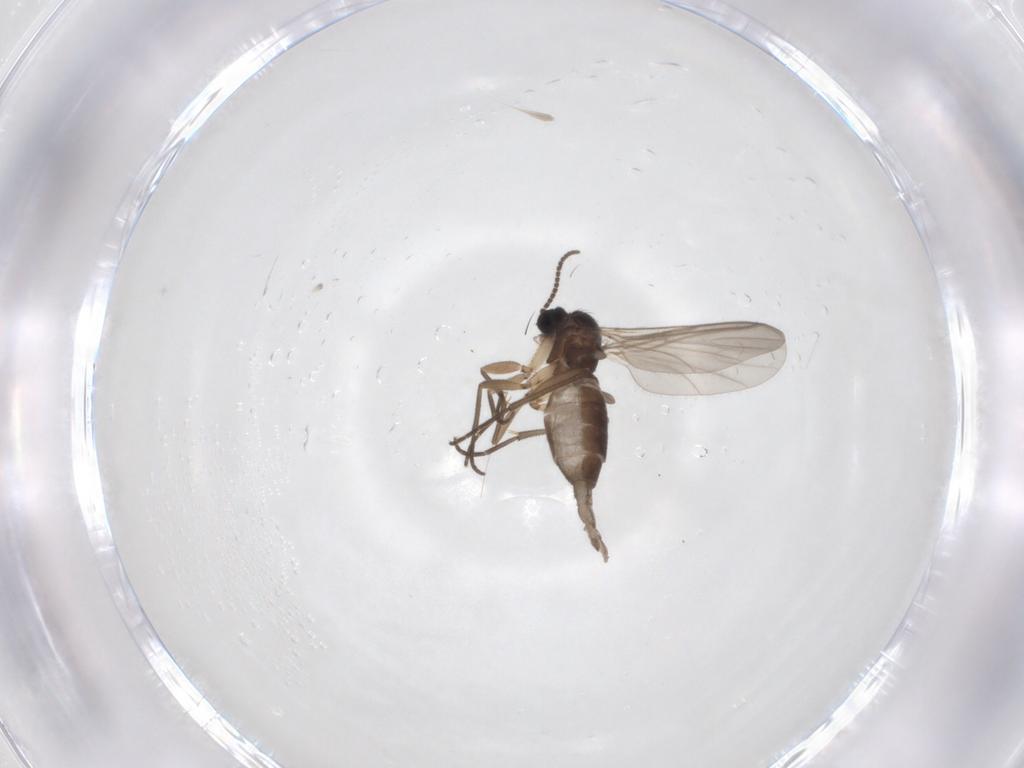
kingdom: Animalia
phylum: Arthropoda
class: Insecta
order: Diptera
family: Sciaridae
